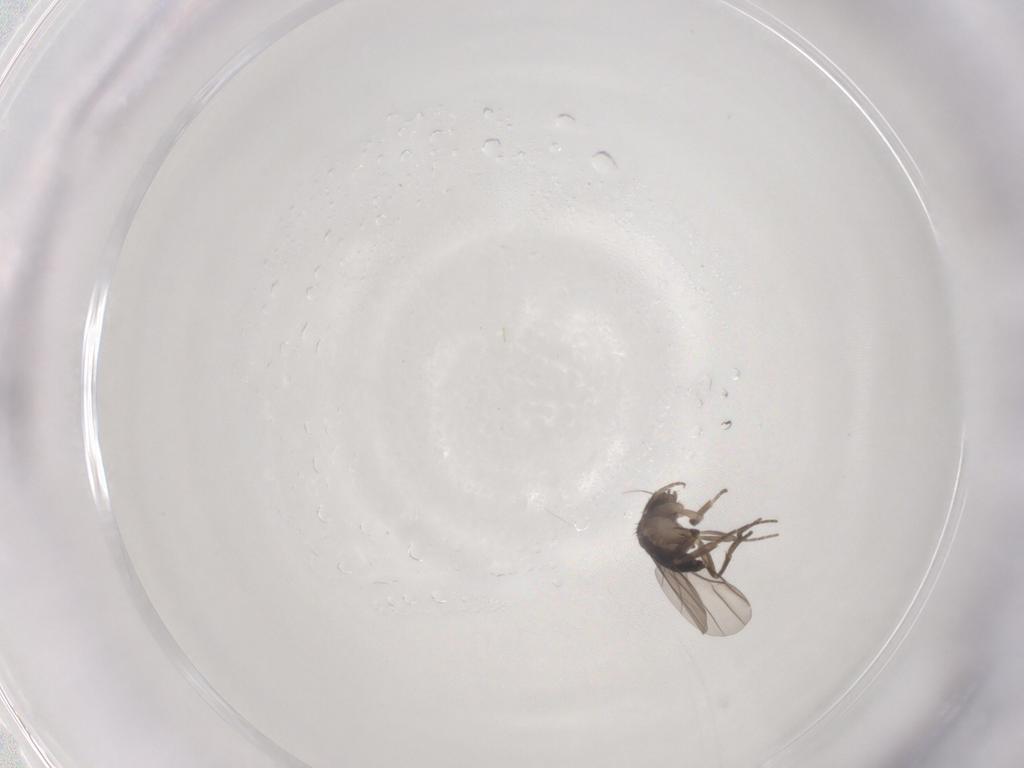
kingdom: Animalia
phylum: Arthropoda
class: Insecta
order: Diptera
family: Phoridae
